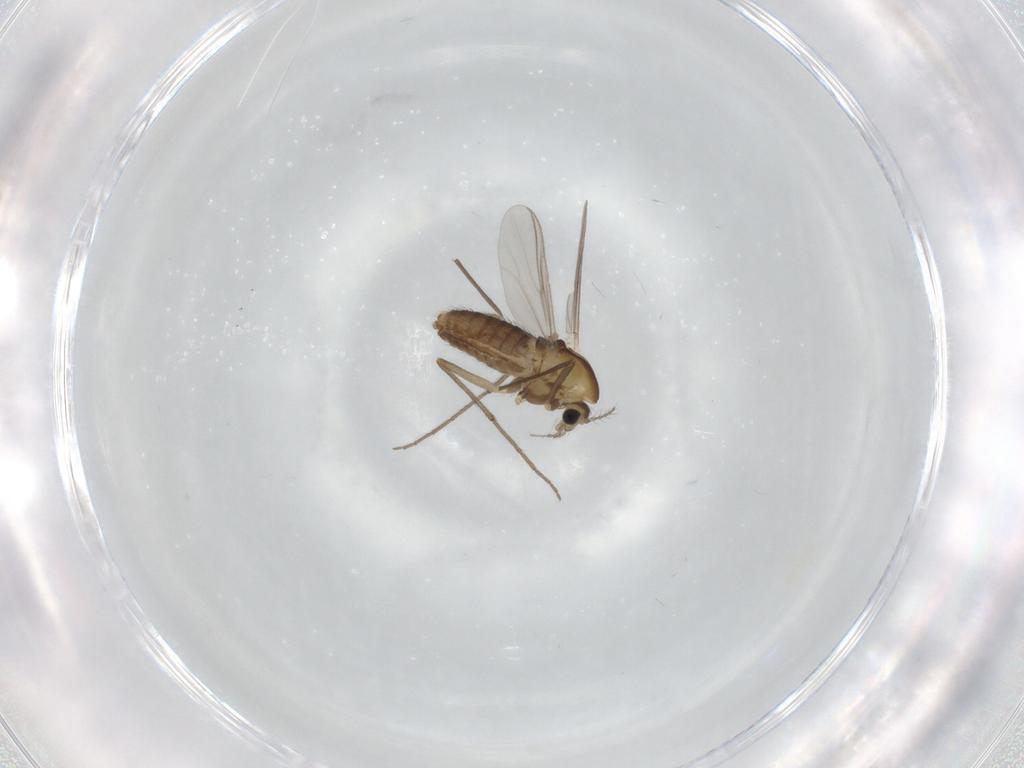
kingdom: Animalia
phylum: Arthropoda
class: Insecta
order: Diptera
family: Chironomidae
